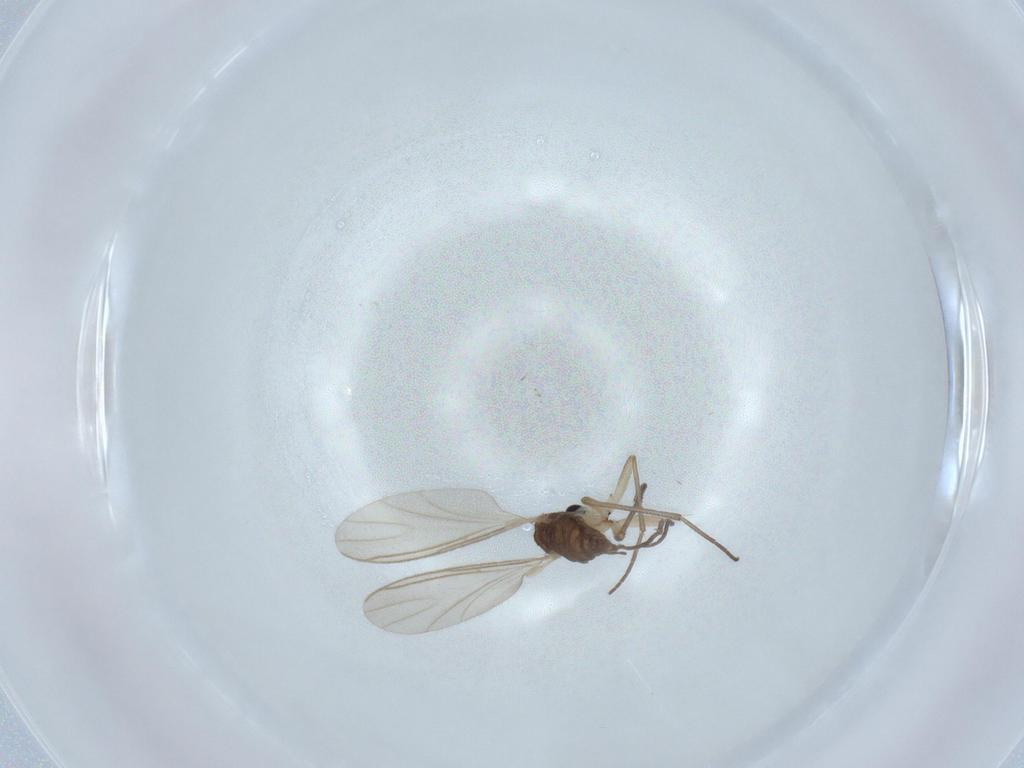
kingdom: Animalia
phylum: Arthropoda
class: Insecta
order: Diptera
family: Sciaridae
